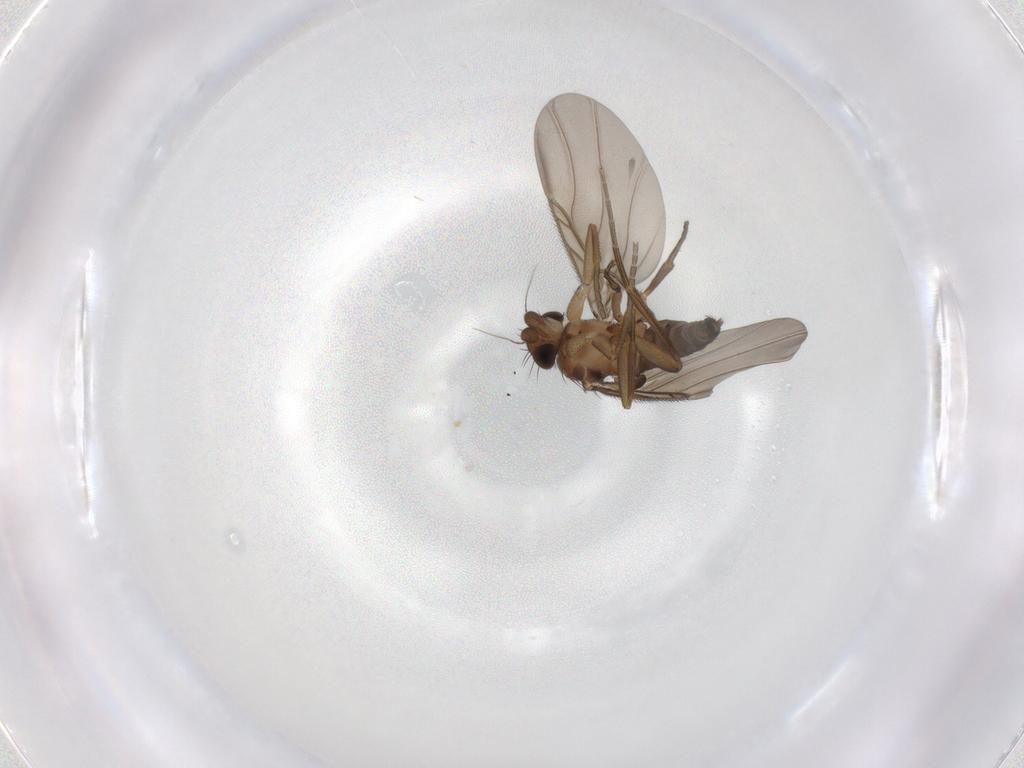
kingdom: Animalia
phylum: Arthropoda
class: Insecta
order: Diptera
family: Phoridae
